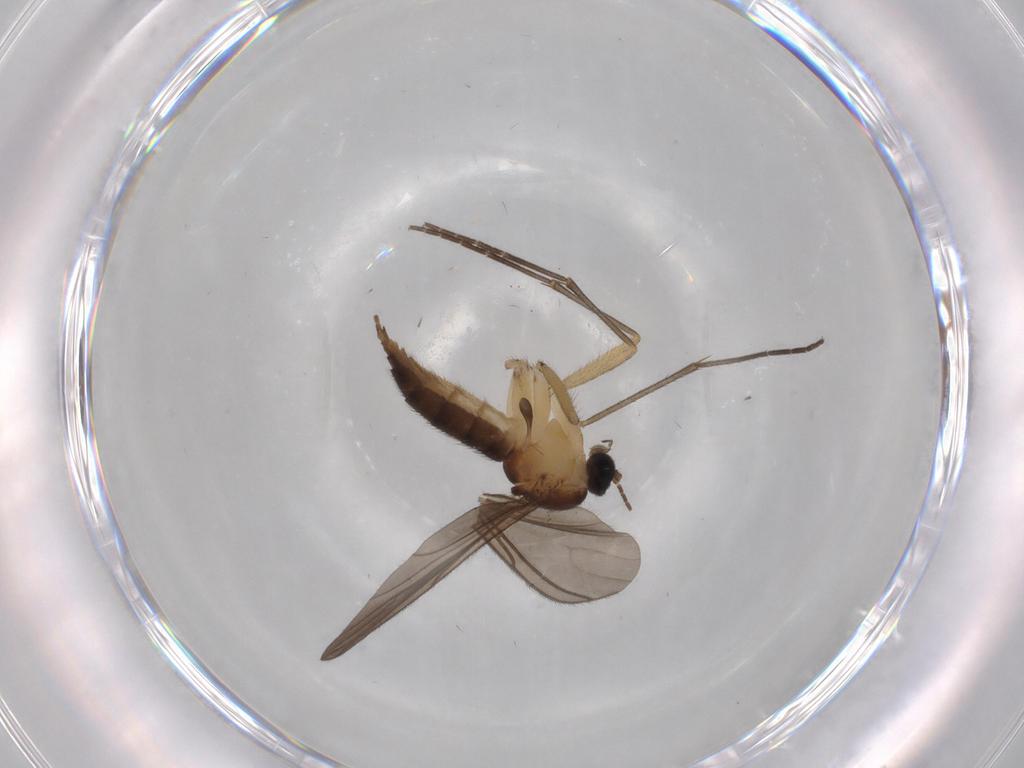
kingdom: Animalia
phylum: Arthropoda
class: Insecta
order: Diptera
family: Sciaridae
